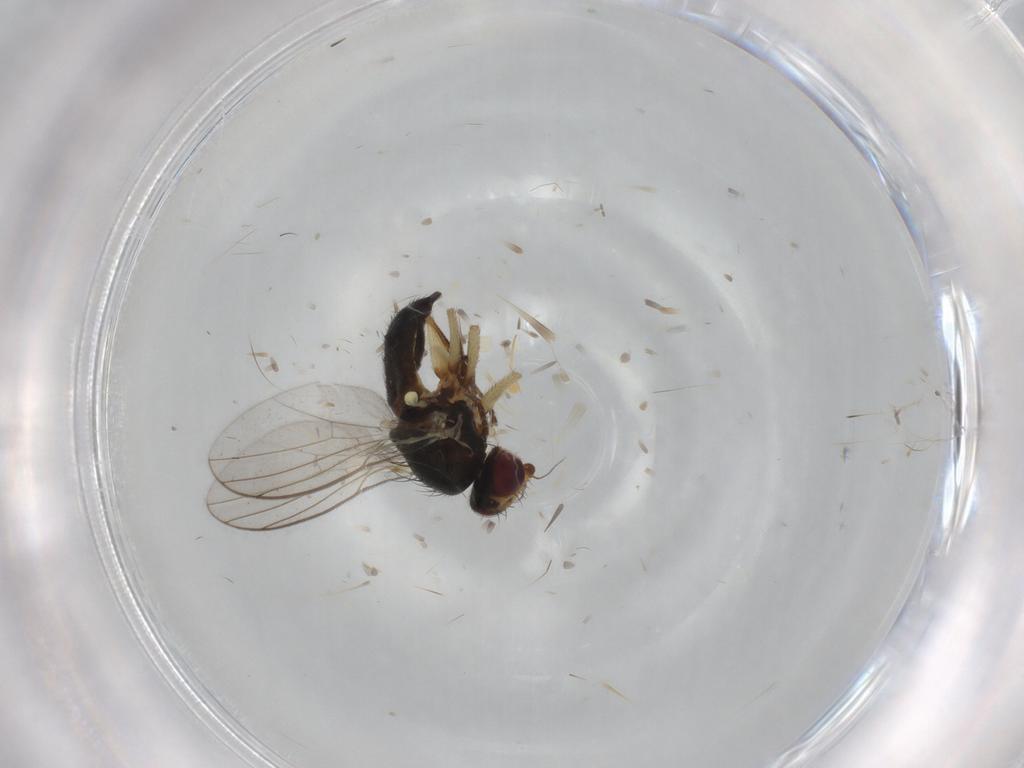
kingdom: Animalia
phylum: Arthropoda
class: Insecta
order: Diptera
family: Agromyzidae
